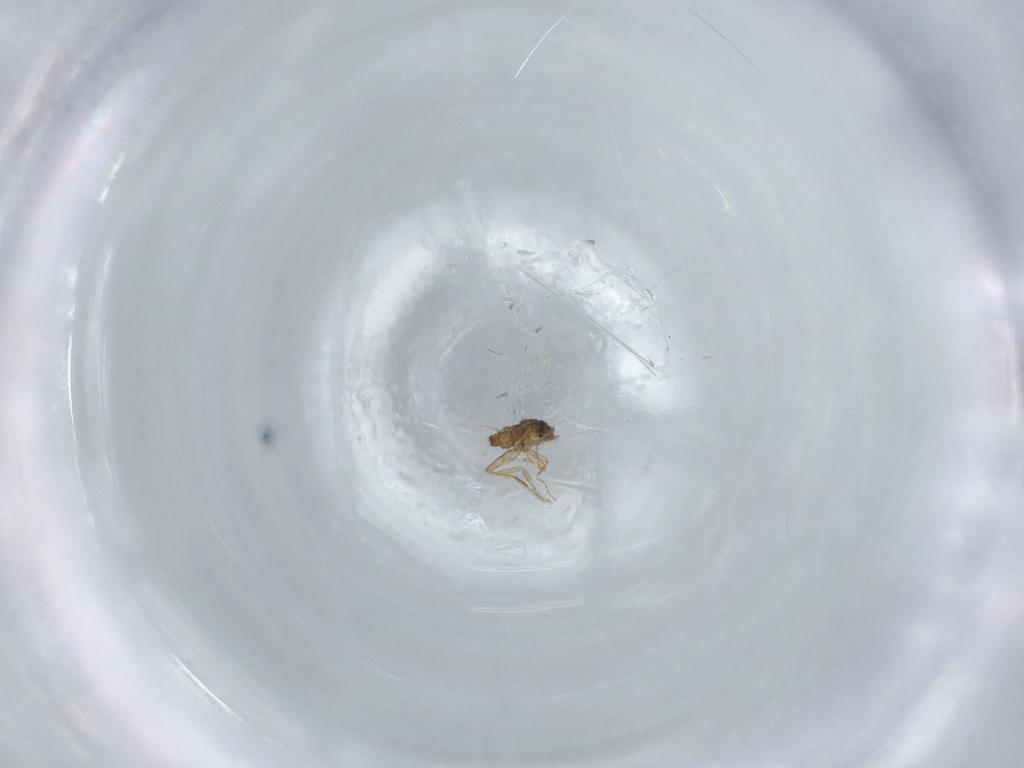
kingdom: Animalia
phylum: Arthropoda
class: Insecta
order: Diptera
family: Phoridae
